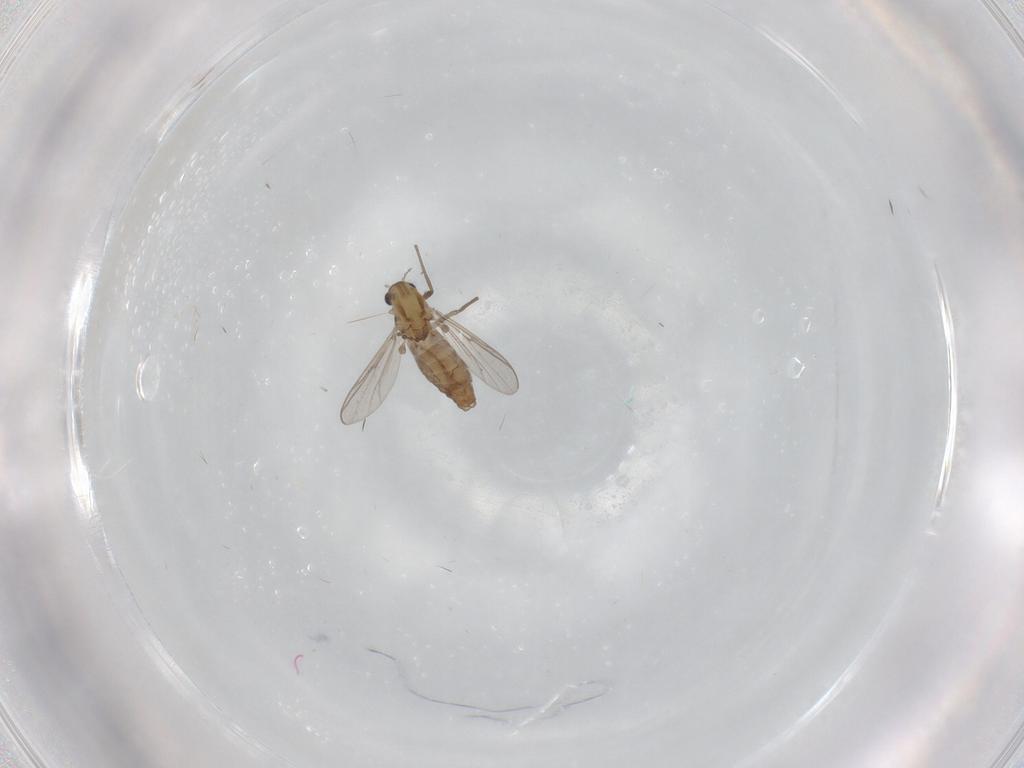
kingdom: Animalia
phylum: Arthropoda
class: Insecta
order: Diptera
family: Chironomidae
